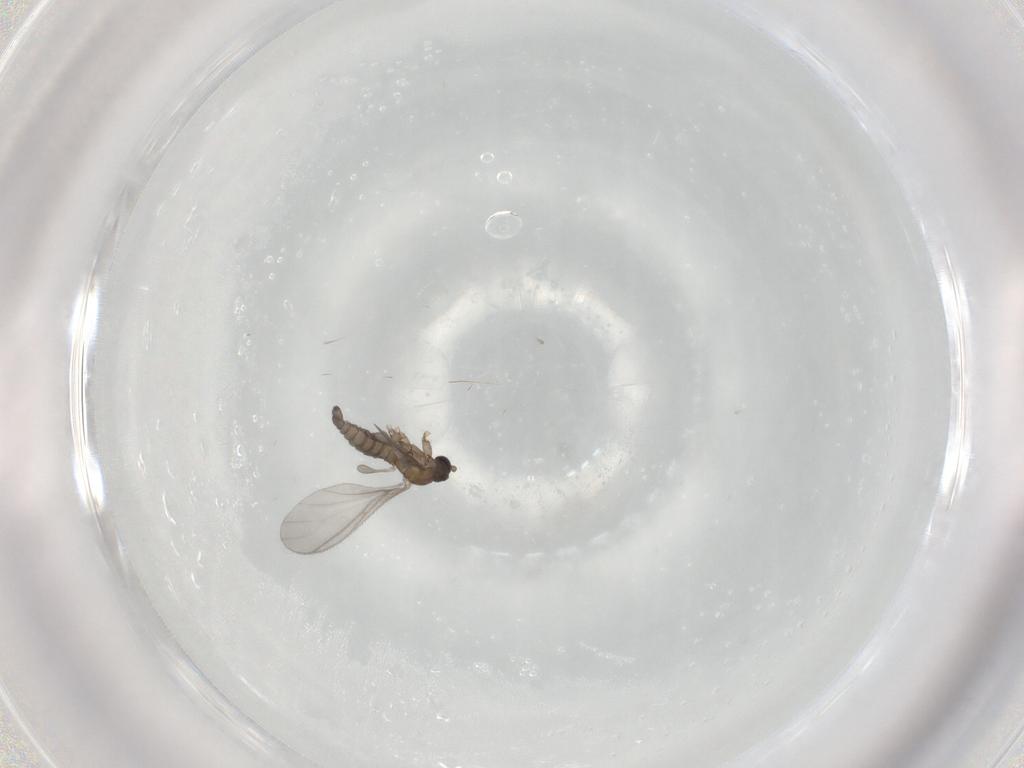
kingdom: Animalia
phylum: Arthropoda
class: Insecta
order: Diptera
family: Sciaridae
